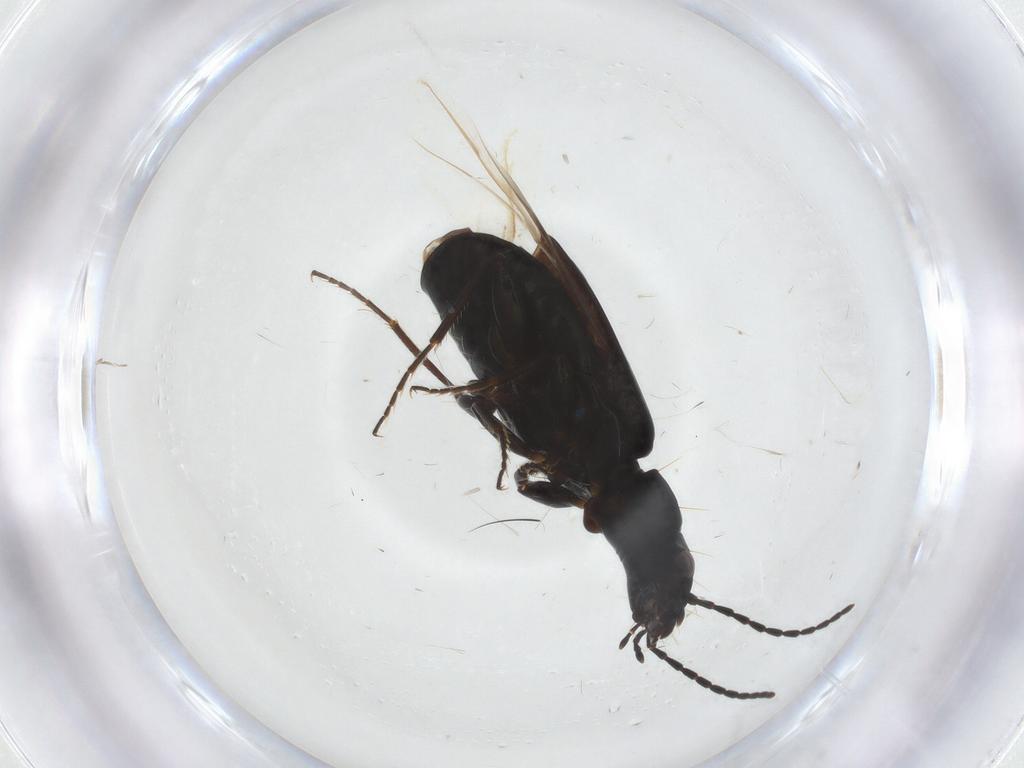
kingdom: Animalia
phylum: Arthropoda
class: Insecta
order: Coleoptera
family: Carabidae
